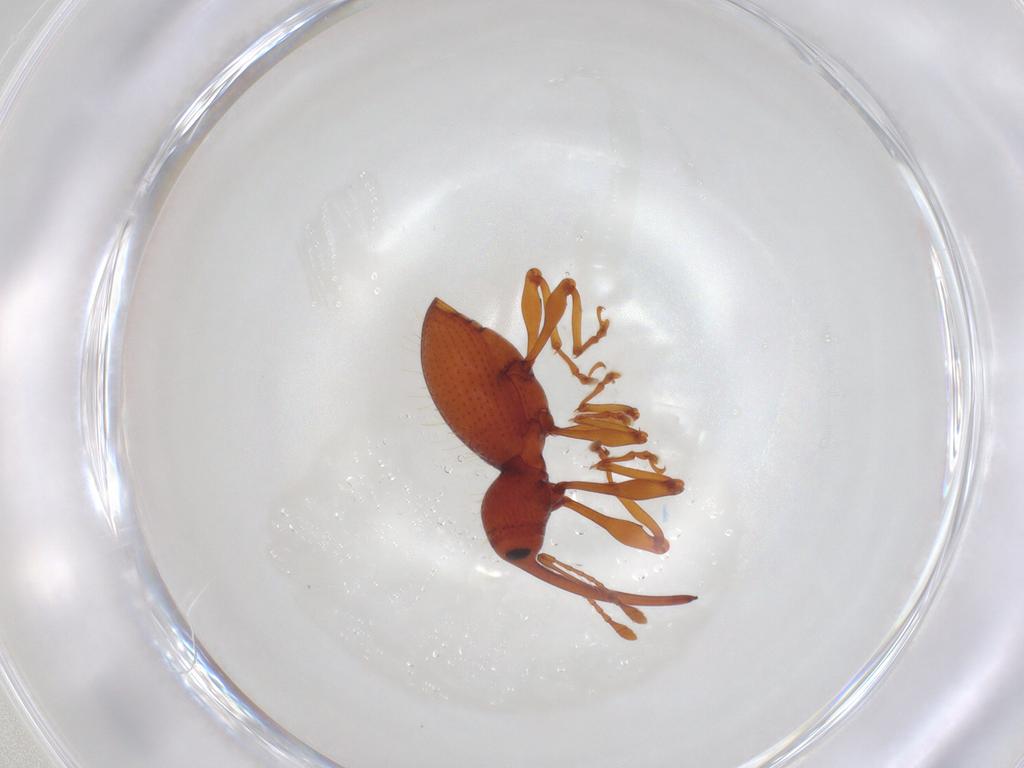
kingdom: Animalia
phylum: Arthropoda
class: Insecta
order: Coleoptera
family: Curculionidae
